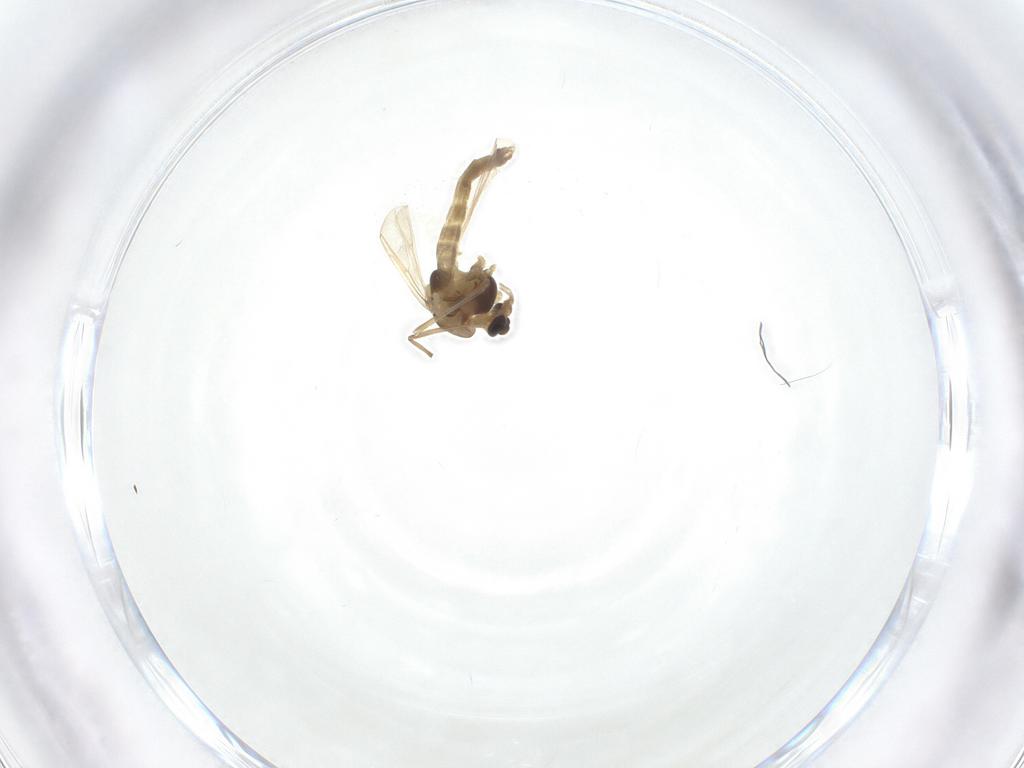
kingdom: Animalia
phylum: Arthropoda
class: Insecta
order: Diptera
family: Chironomidae
